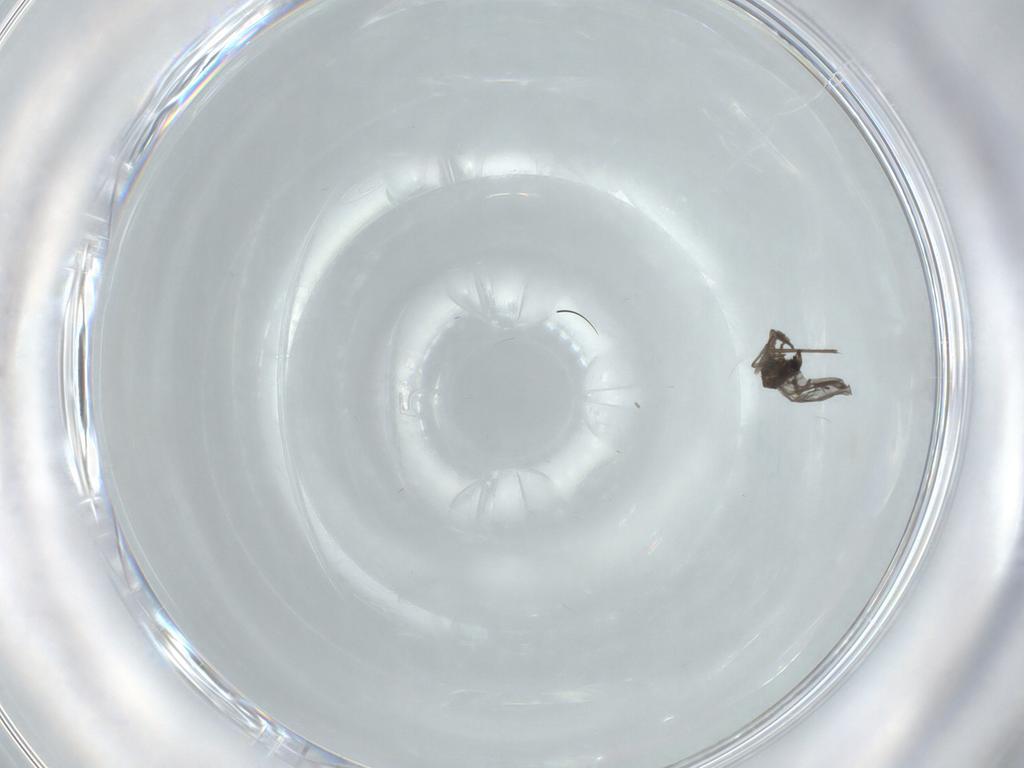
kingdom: Animalia
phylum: Arthropoda
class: Insecta
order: Diptera
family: Chironomidae
